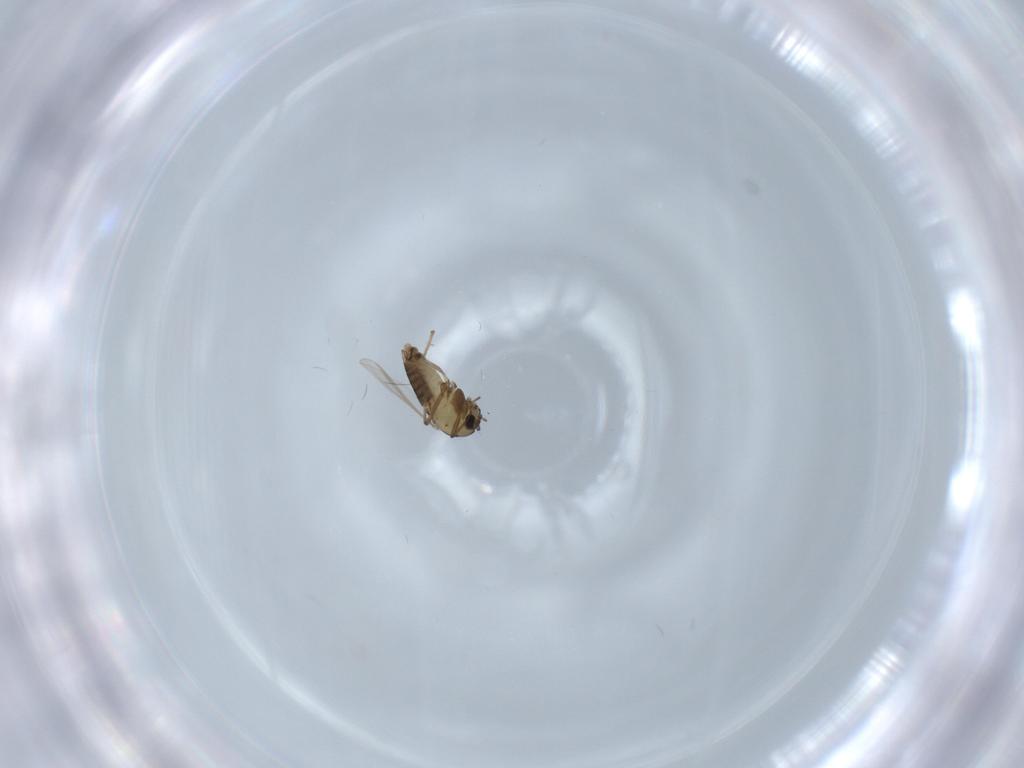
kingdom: Animalia
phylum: Arthropoda
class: Insecta
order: Diptera
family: Chironomidae
